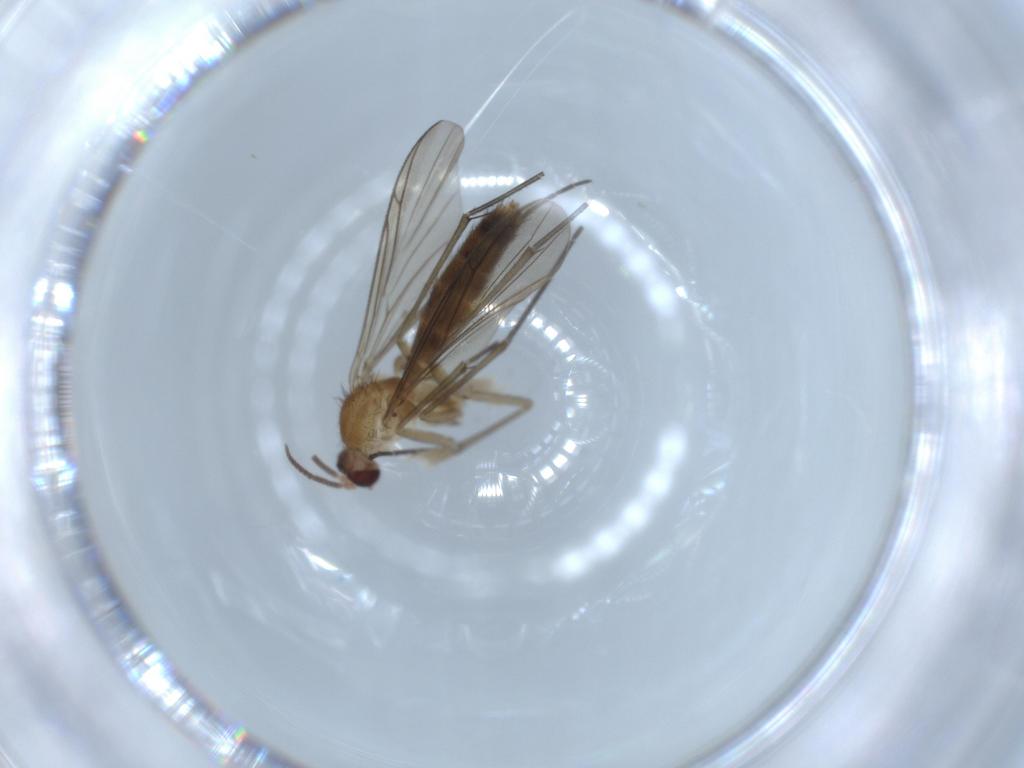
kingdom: Animalia
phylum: Arthropoda
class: Insecta
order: Diptera
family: Keroplatidae
